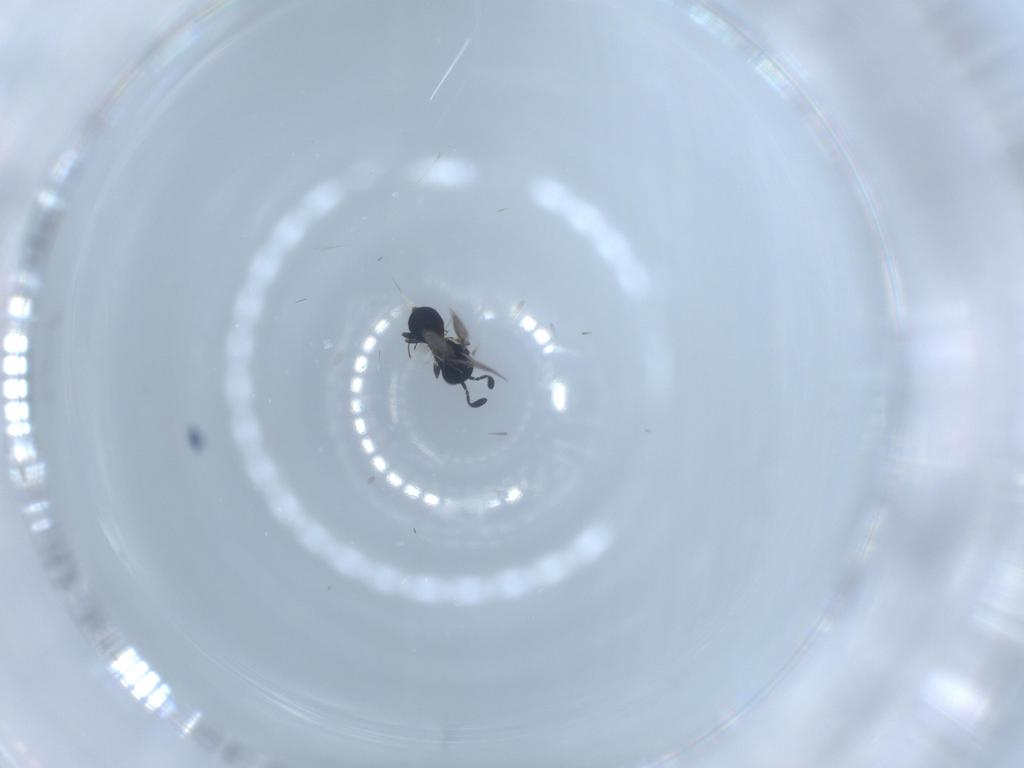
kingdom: Animalia
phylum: Arthropoda
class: Insecta
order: Hymenoptera
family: Scelionidae
